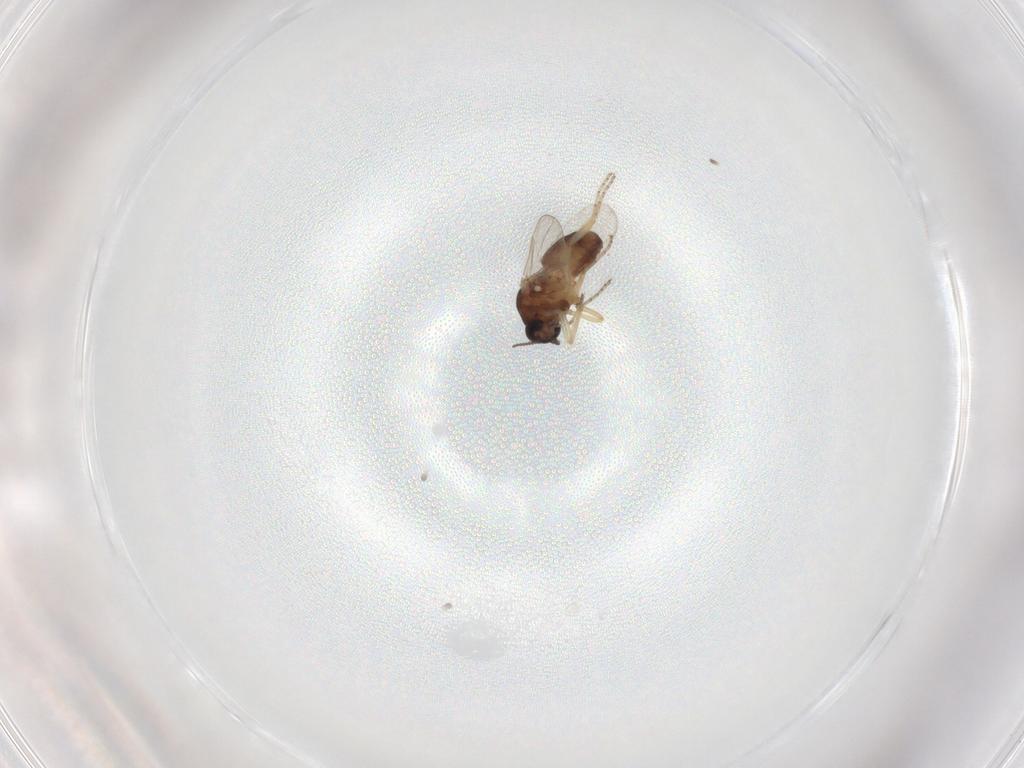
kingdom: Animalia
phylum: Arthropoda
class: Insecta
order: Diptera
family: Ceratopogonidae
